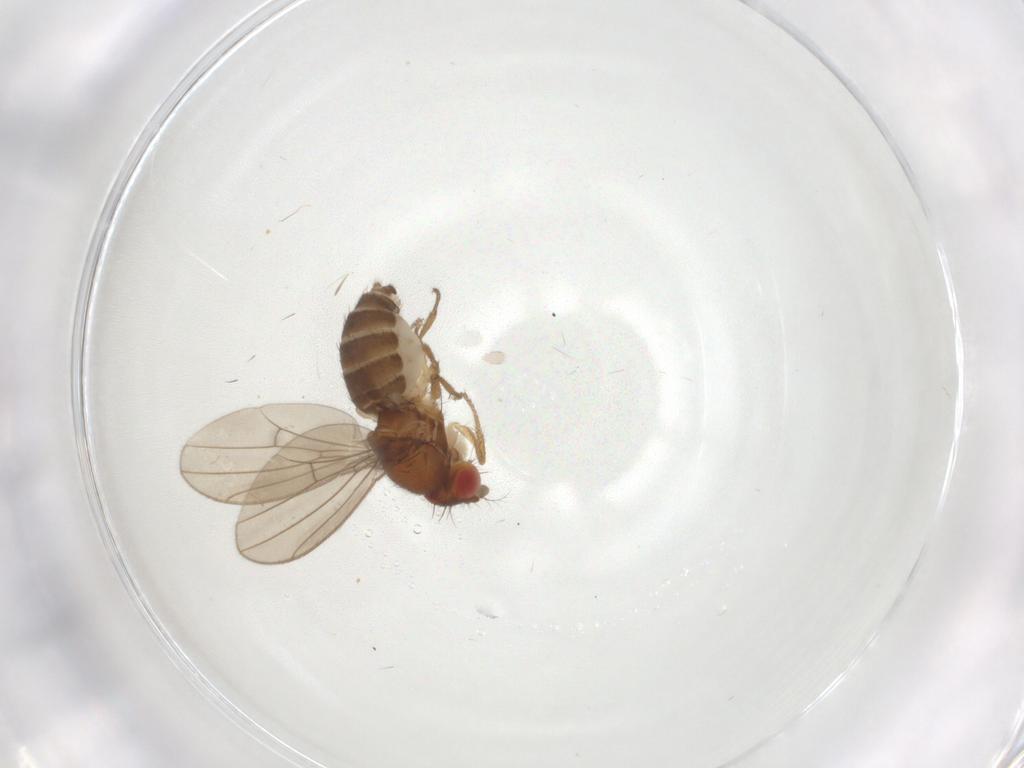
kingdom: Animalia
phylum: Arthropoda
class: Insecta
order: Diptera
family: Drosophilidae
